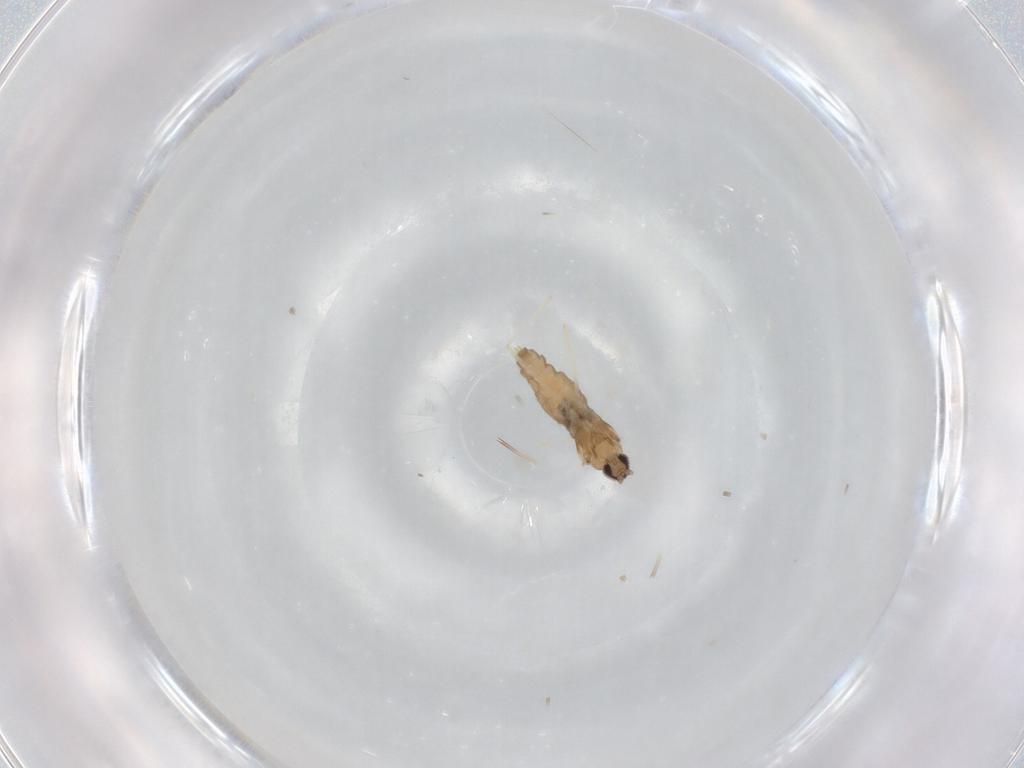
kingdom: Animalia
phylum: Arthropoda
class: Insecta
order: Diptera
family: Cecidomyiidae
